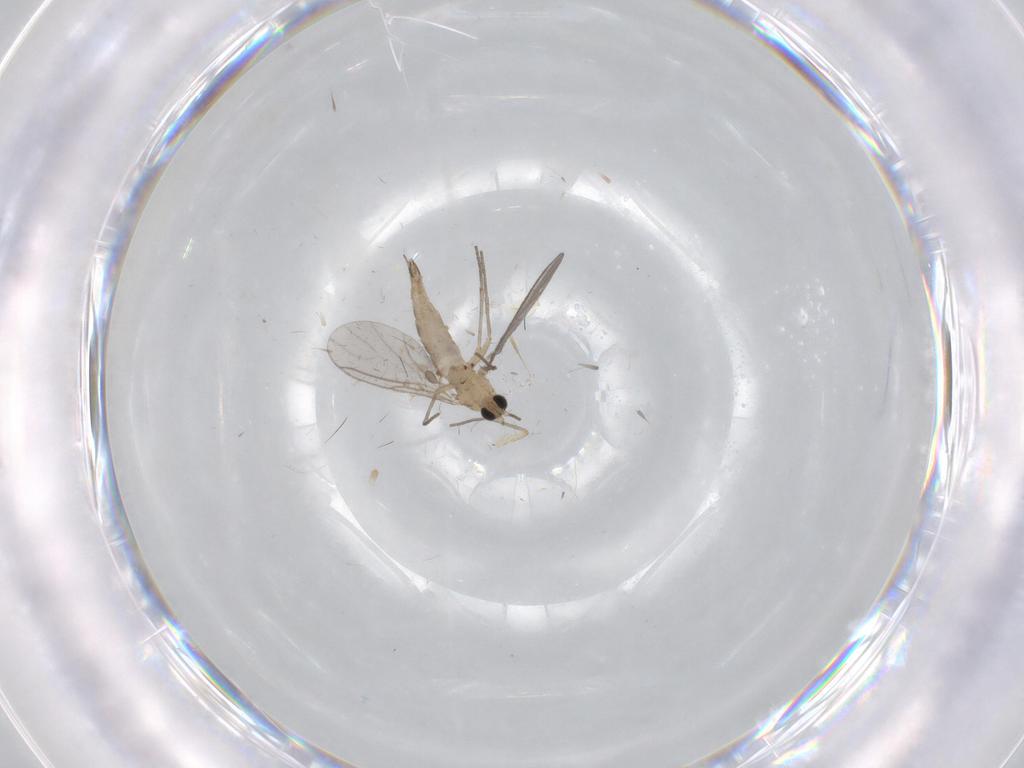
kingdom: Animalia
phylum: Arthropoda
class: Insecta
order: Diptera
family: Sciaridae
